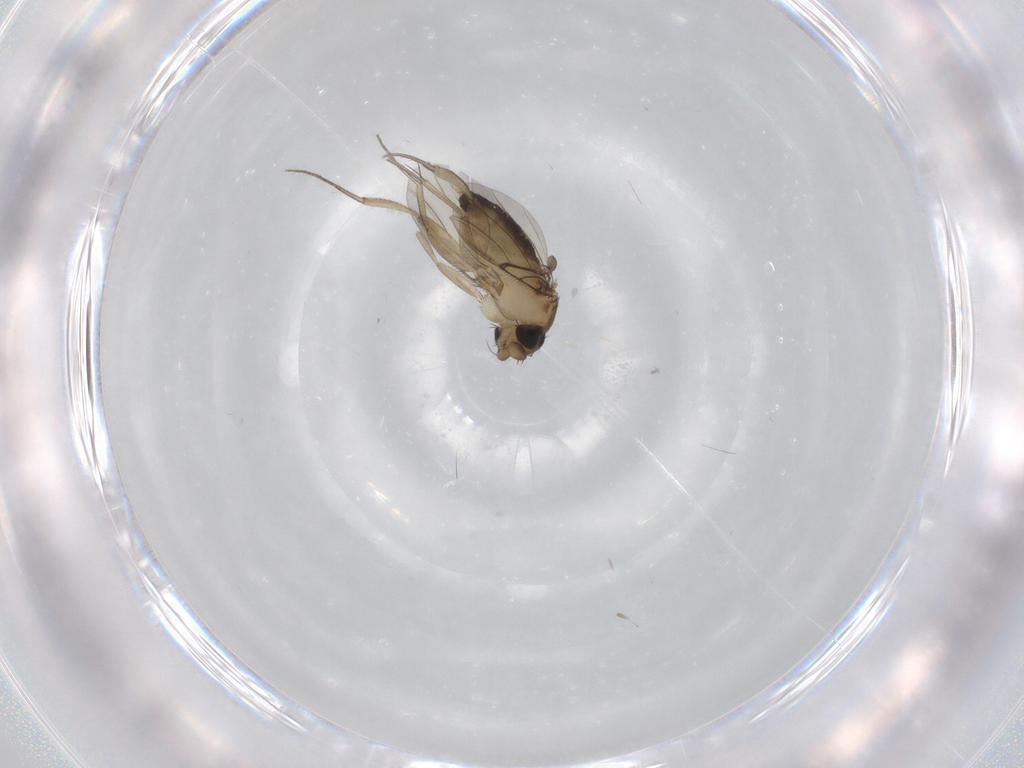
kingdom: Animalia
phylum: Arthropoda
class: Insecta
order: Diptera
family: Phoridae
